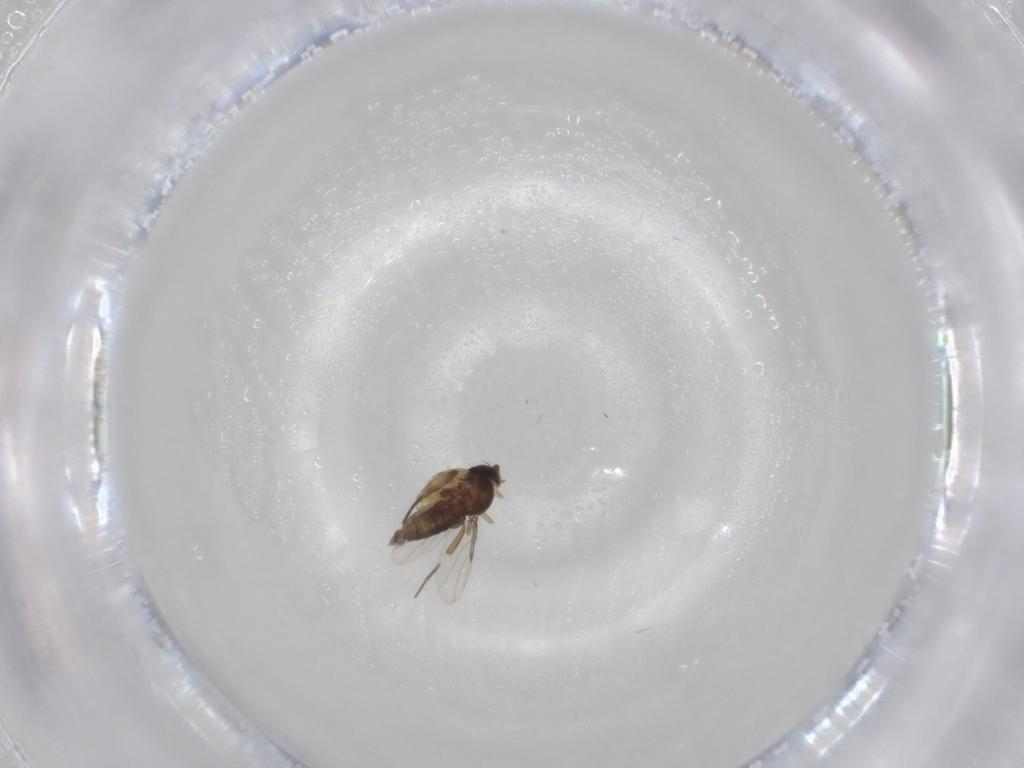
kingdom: Animalia
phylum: Arthropoda
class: Insecta
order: Diptera
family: Phoridae
